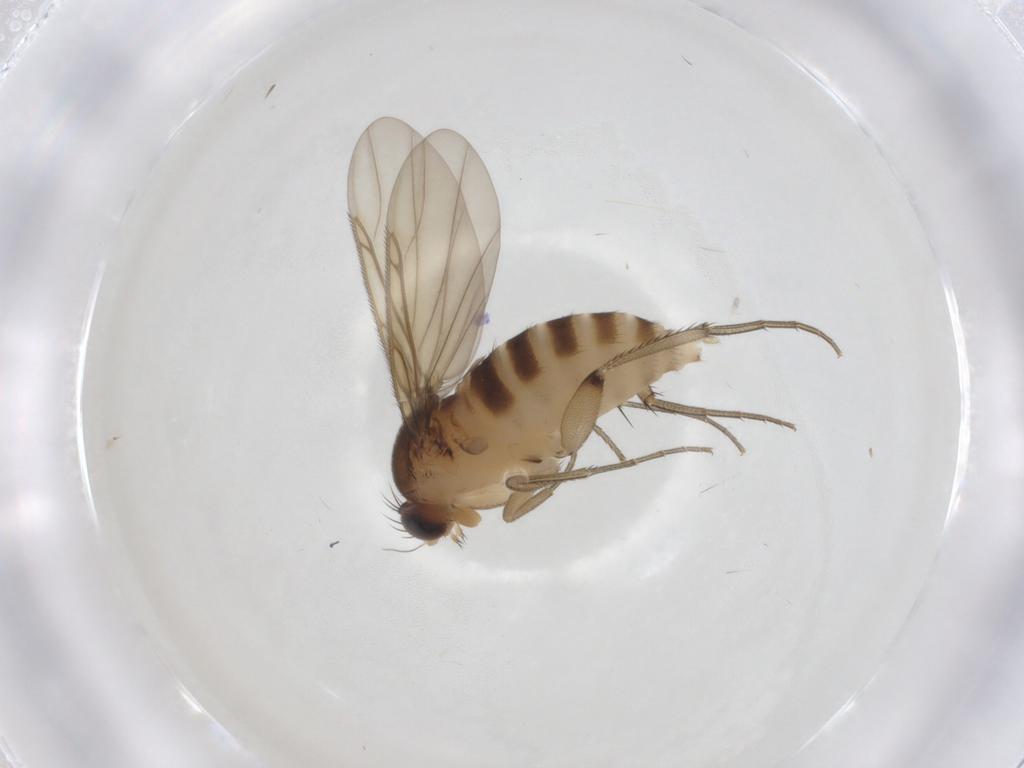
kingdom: Animalia
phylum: Arthropoda
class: Insecta
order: Diptera
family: Phoridae
